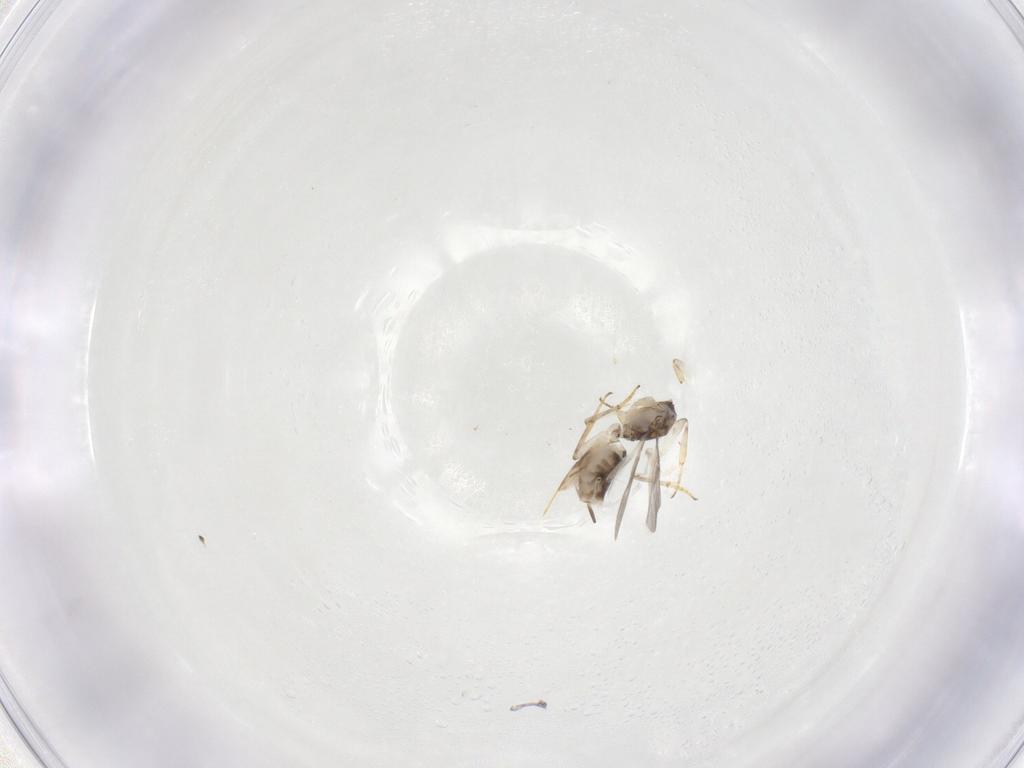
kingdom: Animalia
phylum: Arthropoda
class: Insecta
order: Hymenoptera
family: Encyrtidae
